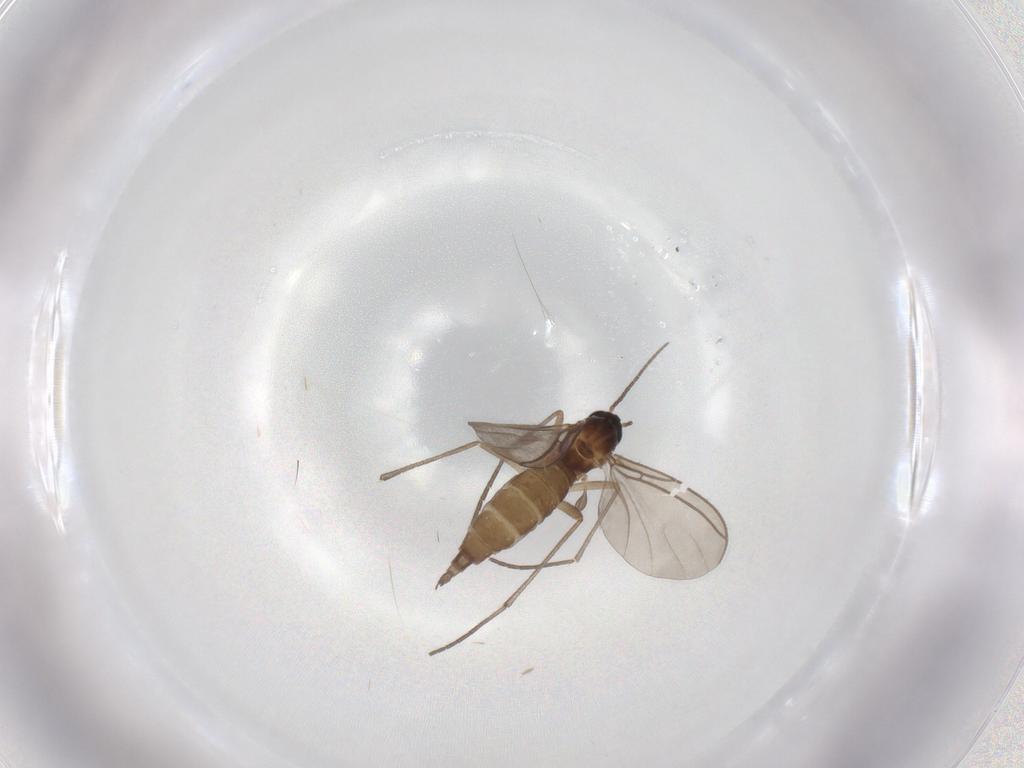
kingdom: Animalia
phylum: Arthropoda
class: Insecta
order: Diptera
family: Sciaridae
